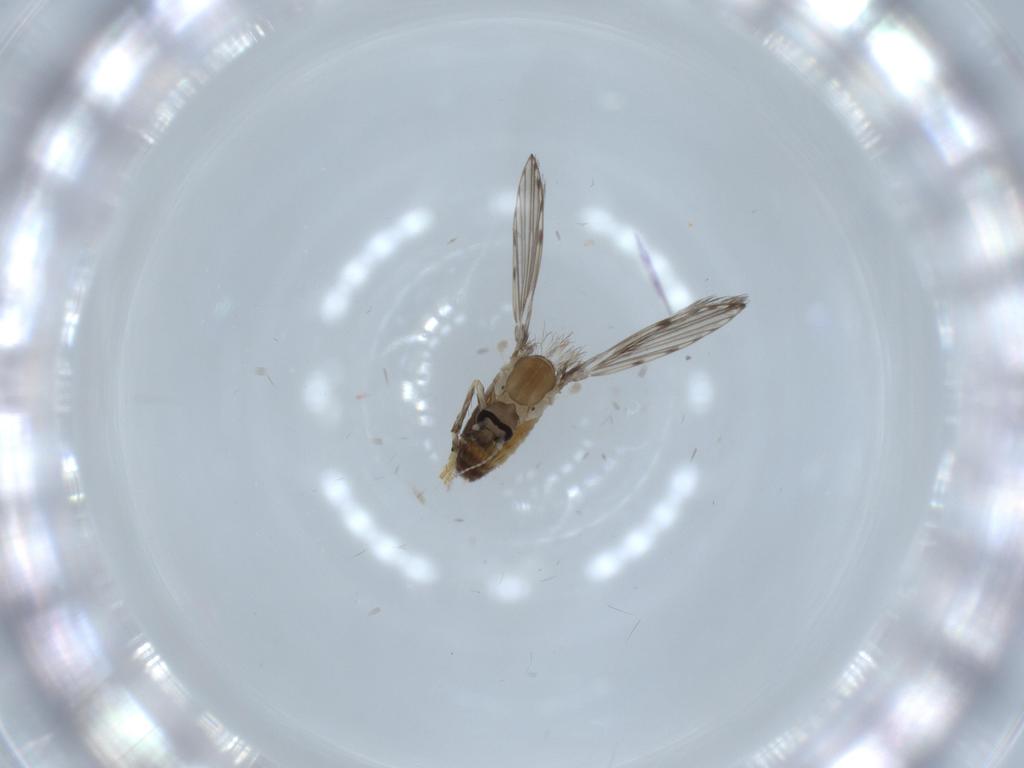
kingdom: Animalia
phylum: Arthropoda
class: Insecta
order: Diptera
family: Psychodidae
